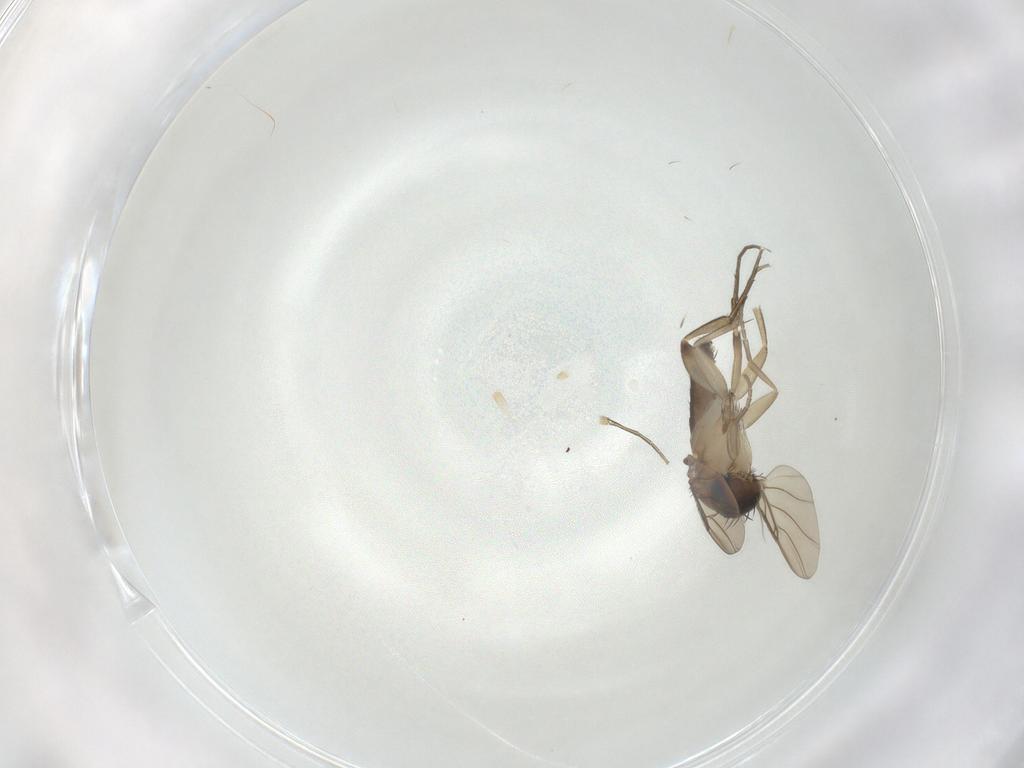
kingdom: Animalia
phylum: Arthropoda
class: Insecta
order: Diptera
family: Phoridae
